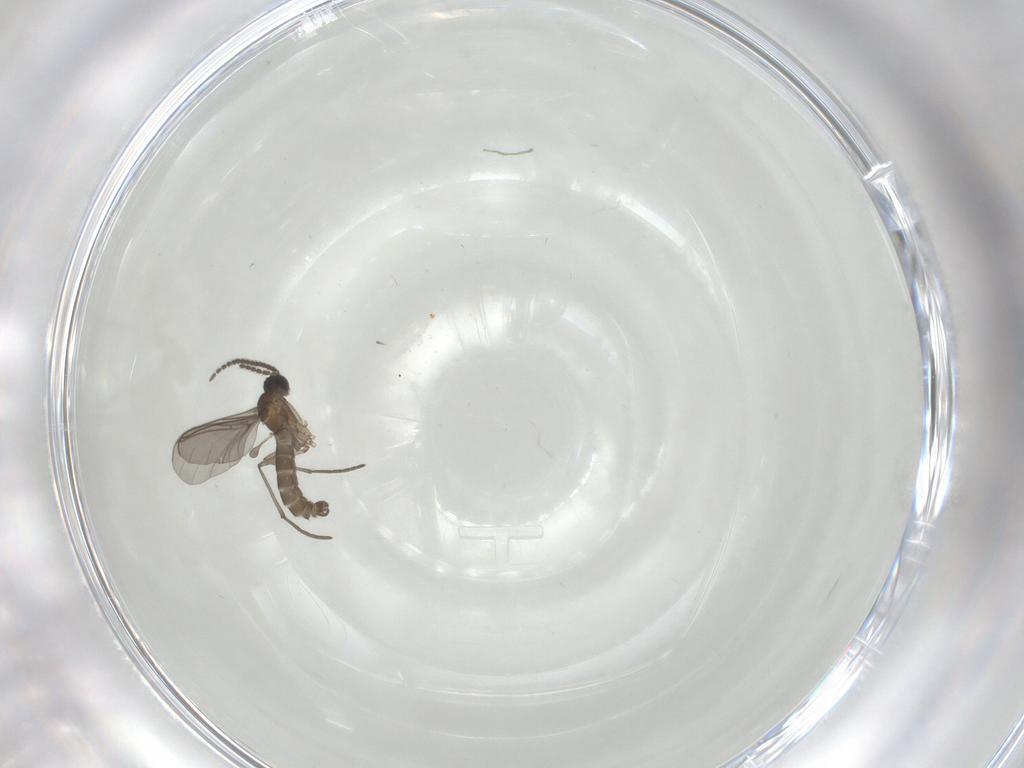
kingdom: Animalia
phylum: Arthropoda
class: Insecta
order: Diptera
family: Sciaridae
